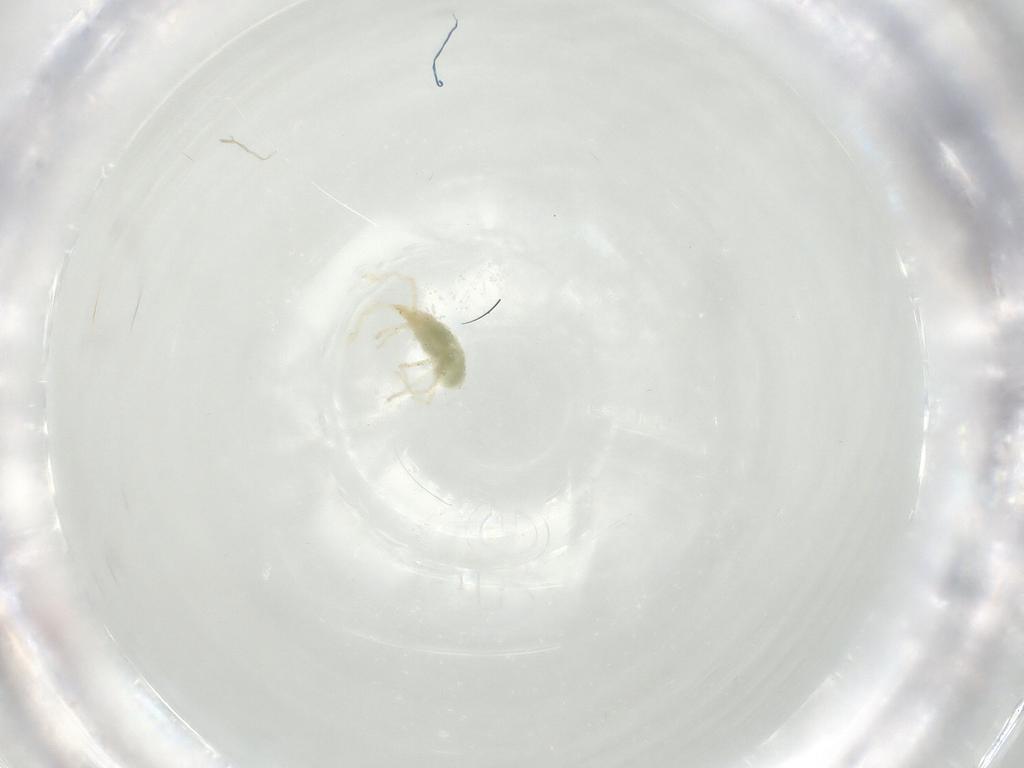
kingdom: Animalia
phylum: Arthropoda
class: Arachnida
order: Trombidiformes
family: Erythraeidae
